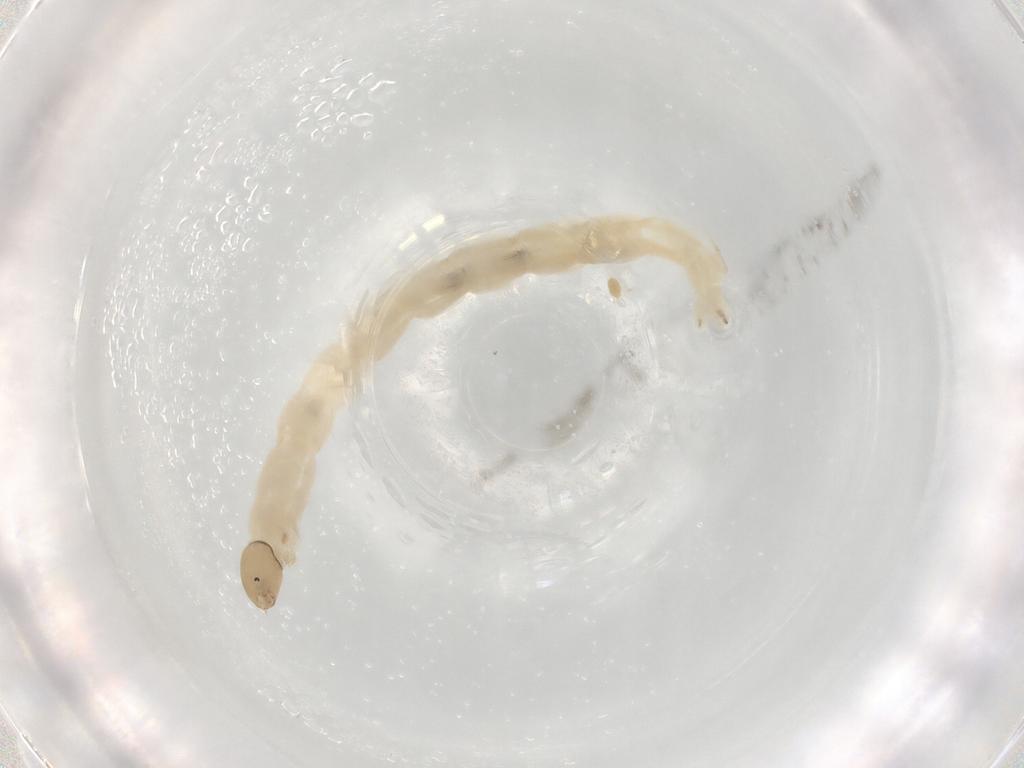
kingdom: Animalia
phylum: Arthropoda
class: Insecta
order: Diptera
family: Chironomidae
